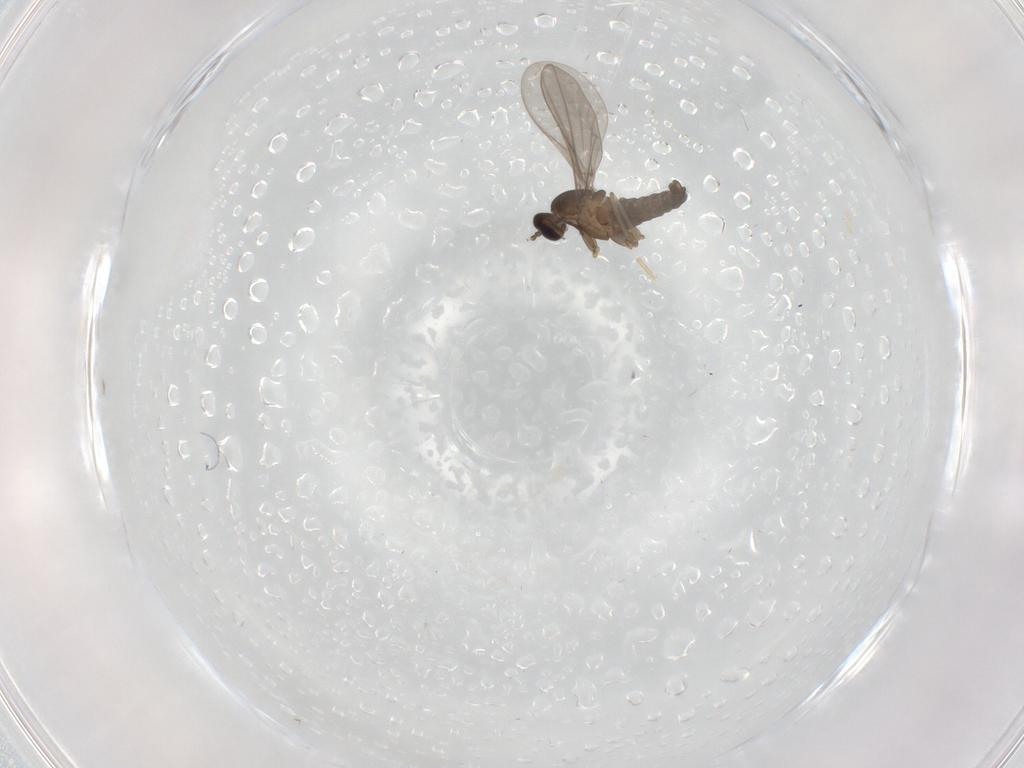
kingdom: Animalia
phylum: Arthropoda
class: Insecta
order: Diptera
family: Cecidomyiidae
